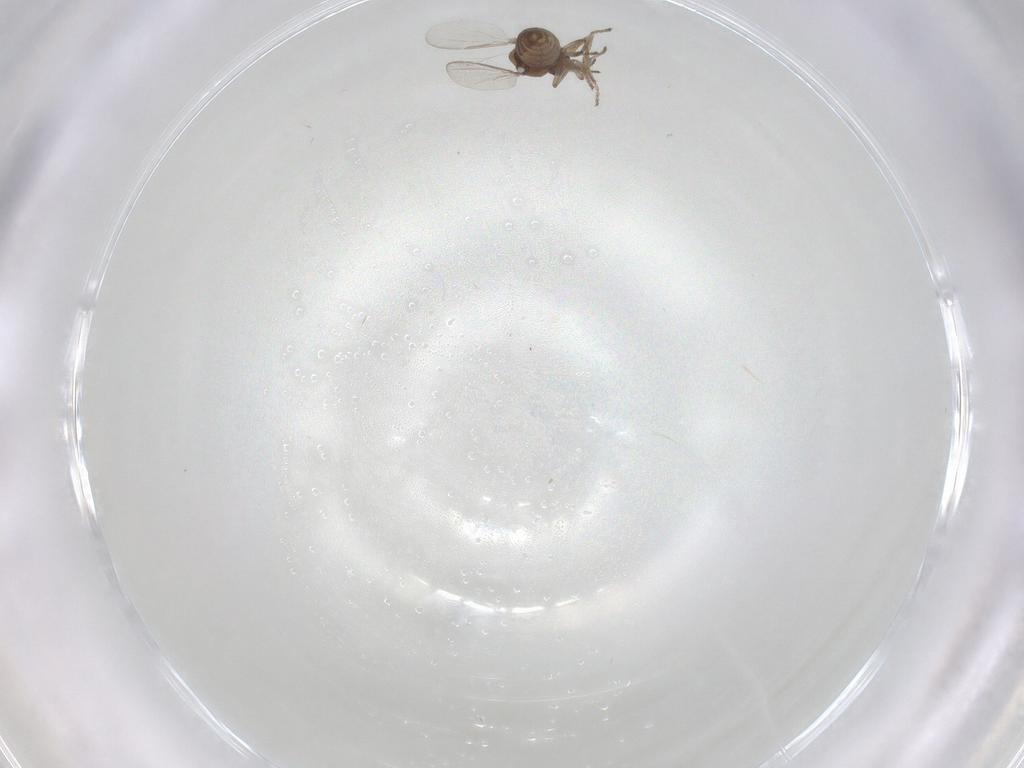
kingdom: Animalia
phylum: Arthropoda
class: Insecta
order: Diptera
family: Ceratopogonidae
